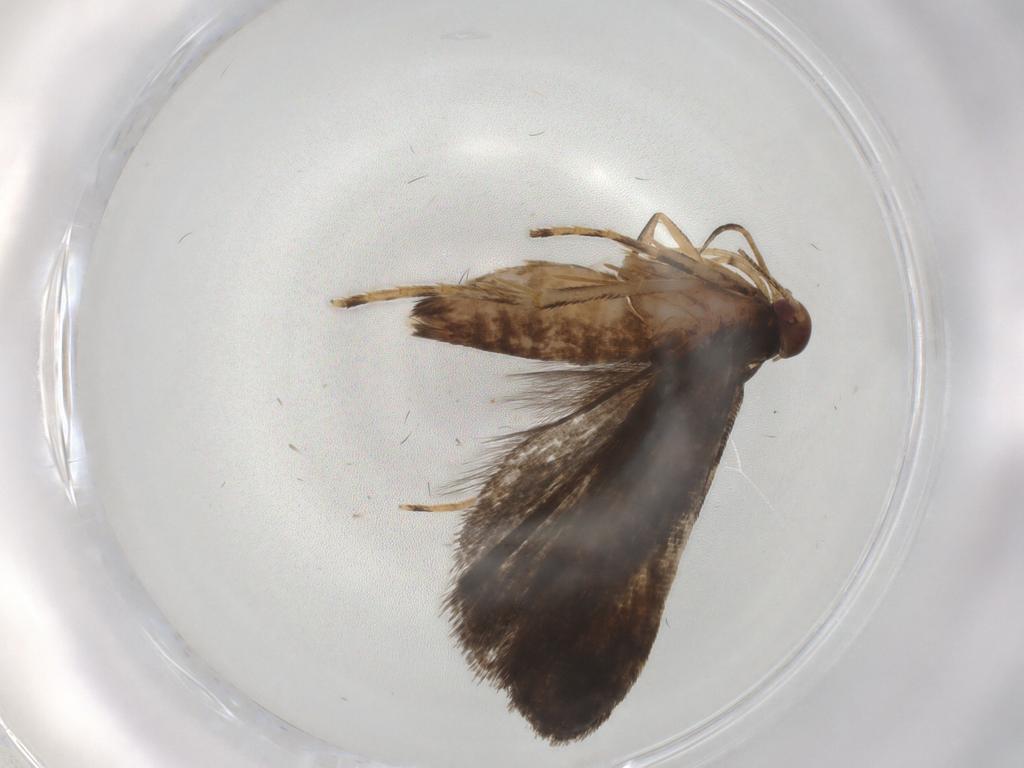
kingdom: Animalia
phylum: Arthropoda
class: Insecta
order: Lepidoptera
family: Gelechiidae
